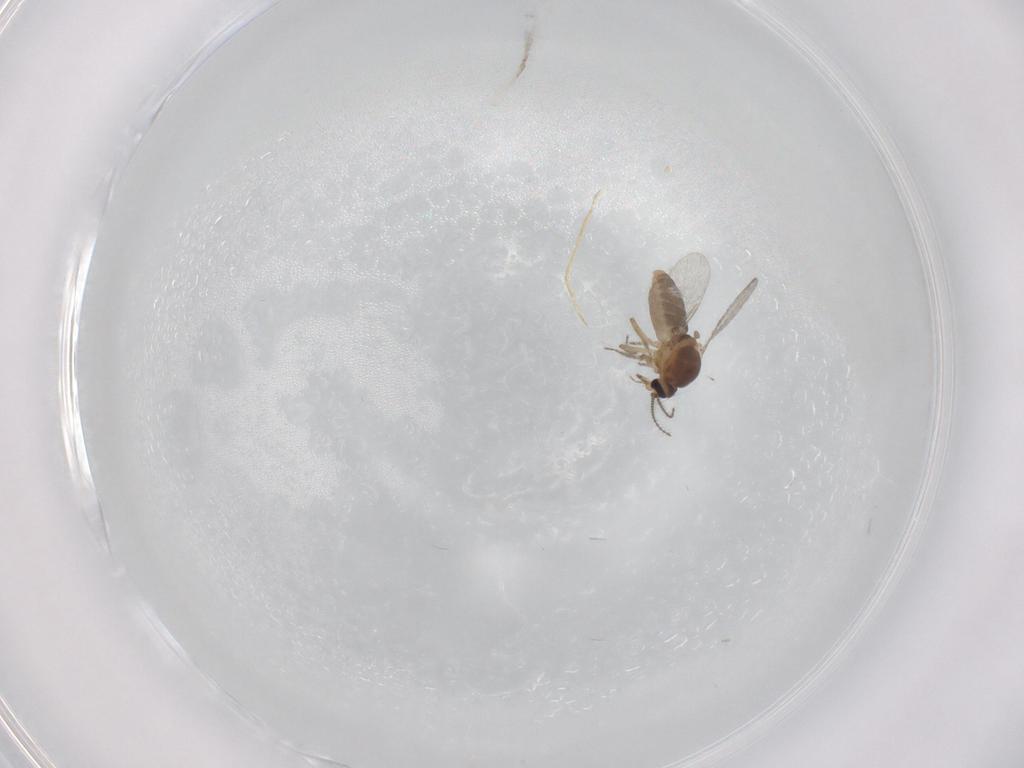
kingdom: Animalia
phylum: Arthropoda
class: Insecta
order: Diptera
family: Ceratopogonidae
